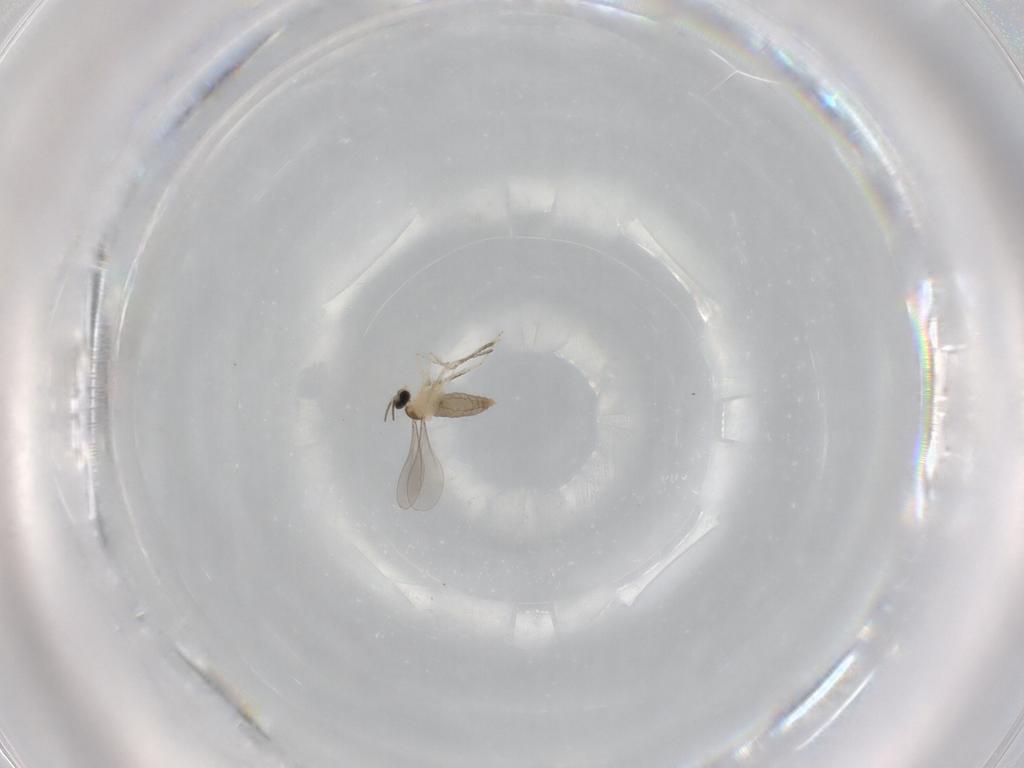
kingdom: Animalia
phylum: Arthropoda
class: Insecta
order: Diptera
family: Cecidomyiidae
